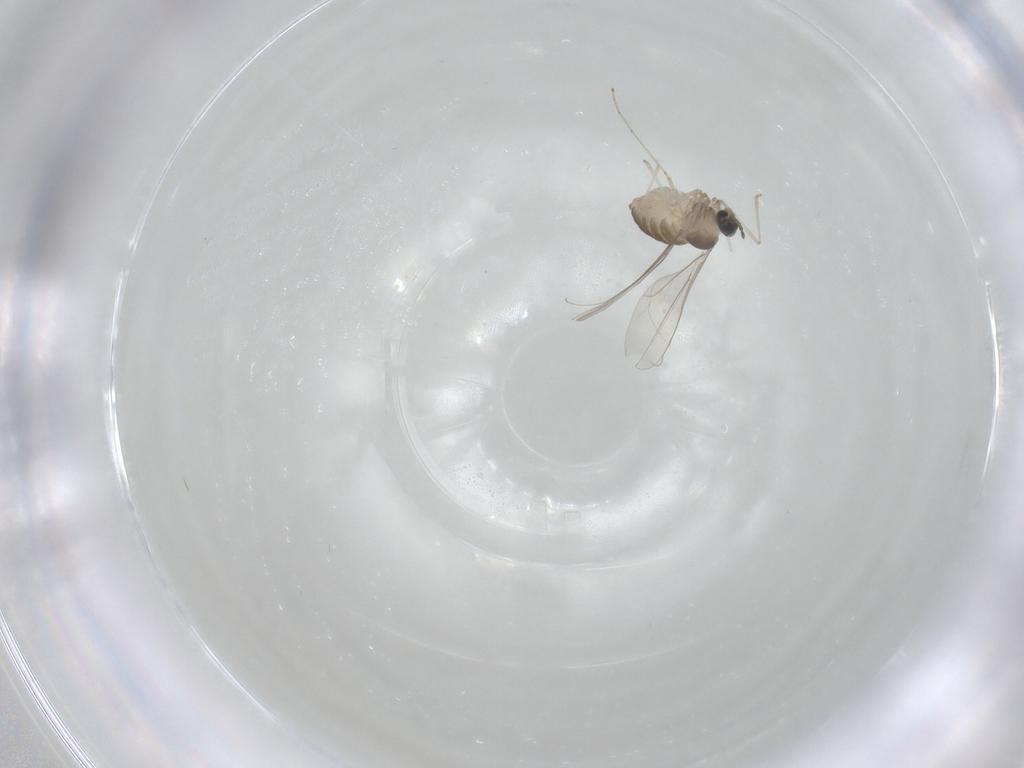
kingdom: Animalia
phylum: Arthropoda
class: Insecta
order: Diptera
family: Cecidomyiidae
